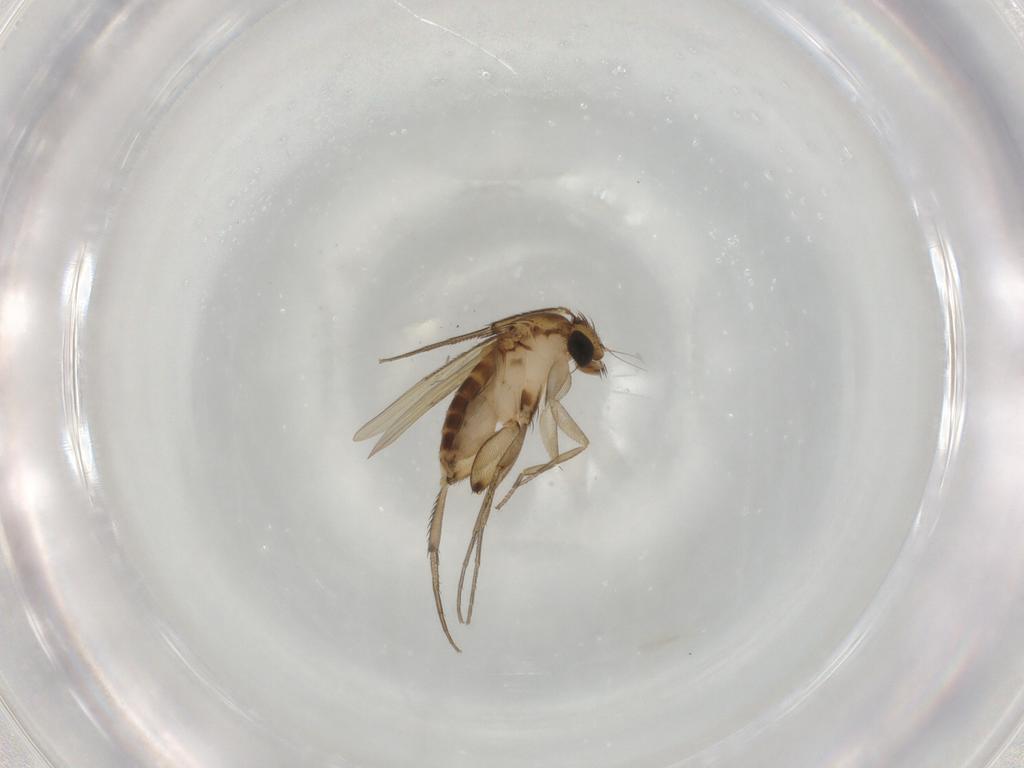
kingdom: Animalia
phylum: Arthropoda
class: Insecta
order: Diptera
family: Phoridae
